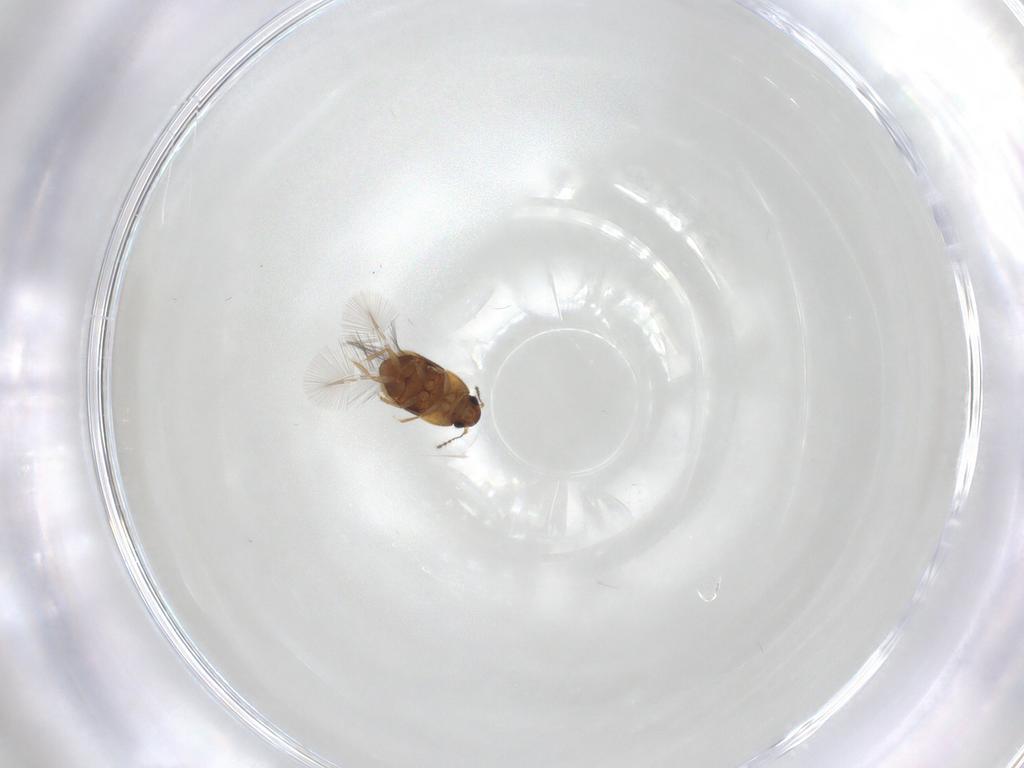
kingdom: Animalia
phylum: Arthropoda
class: Insecta
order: Coleoptera
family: Ptiliidae
